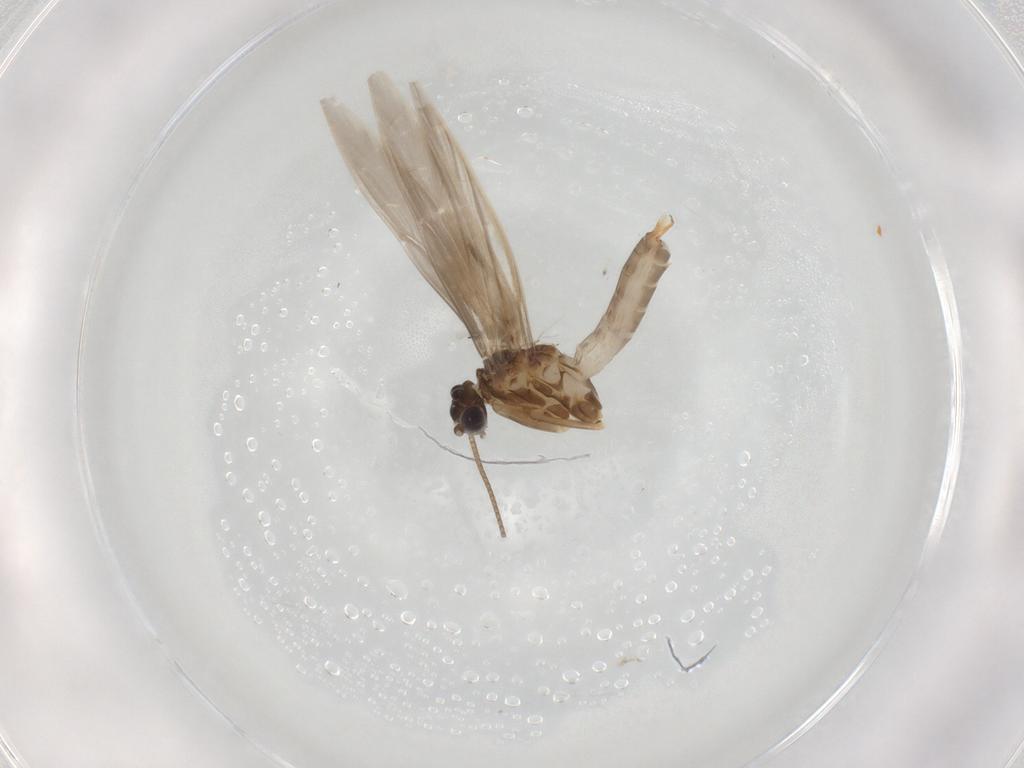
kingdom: Animalia
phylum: Arthropoda
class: Insecta
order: Trichoptera
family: Hydroptilidae
